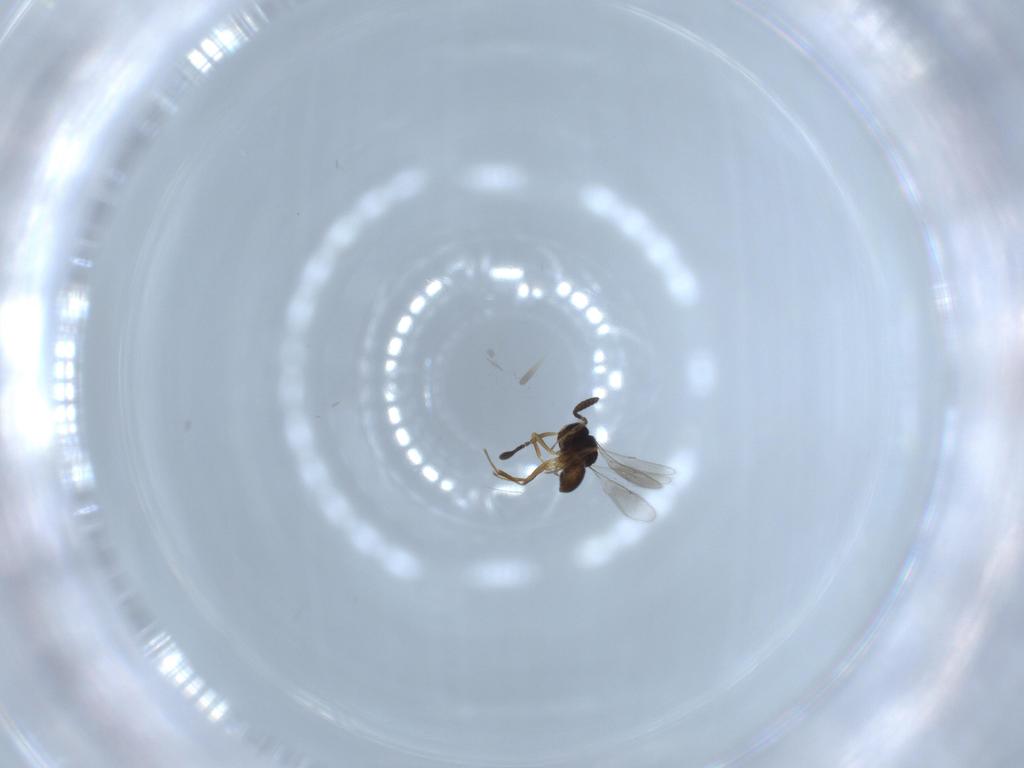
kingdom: Animalia
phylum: Arthropoda
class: Insecta
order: Hymenoptera
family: Scelionidae
